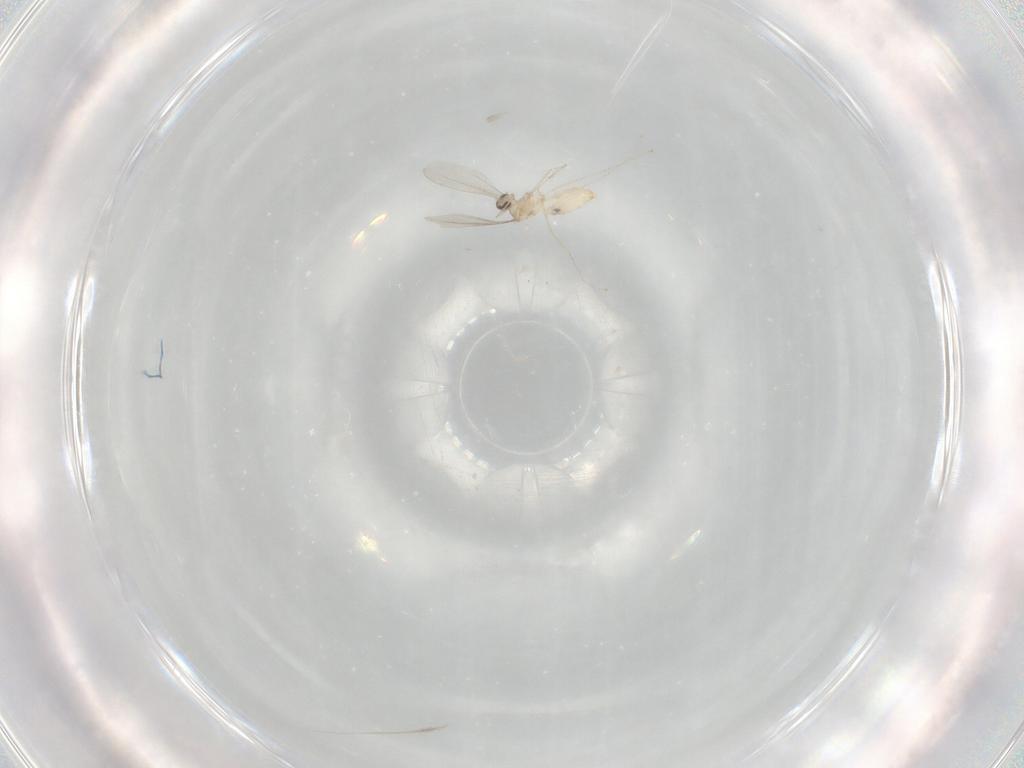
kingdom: Animalia
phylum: Arthropoda
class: Insecta
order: Diptera
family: Cecidomyiidae
